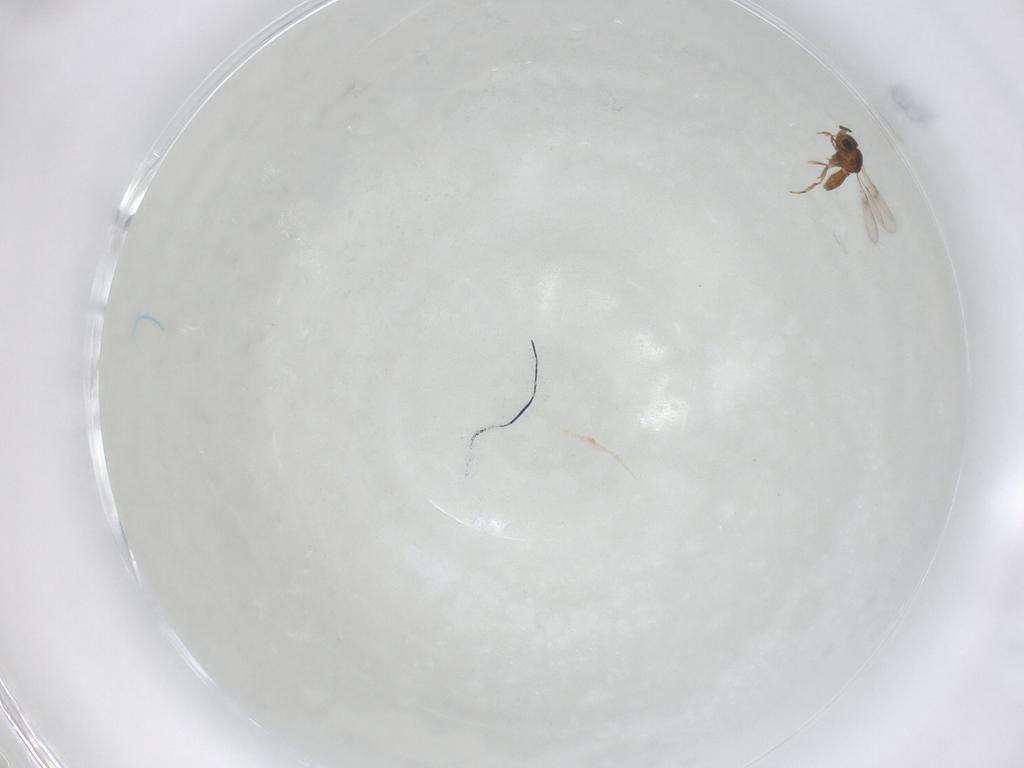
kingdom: Animalia
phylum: Arthropoda
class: Insecta
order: Hymenoptera
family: Scelionidae
